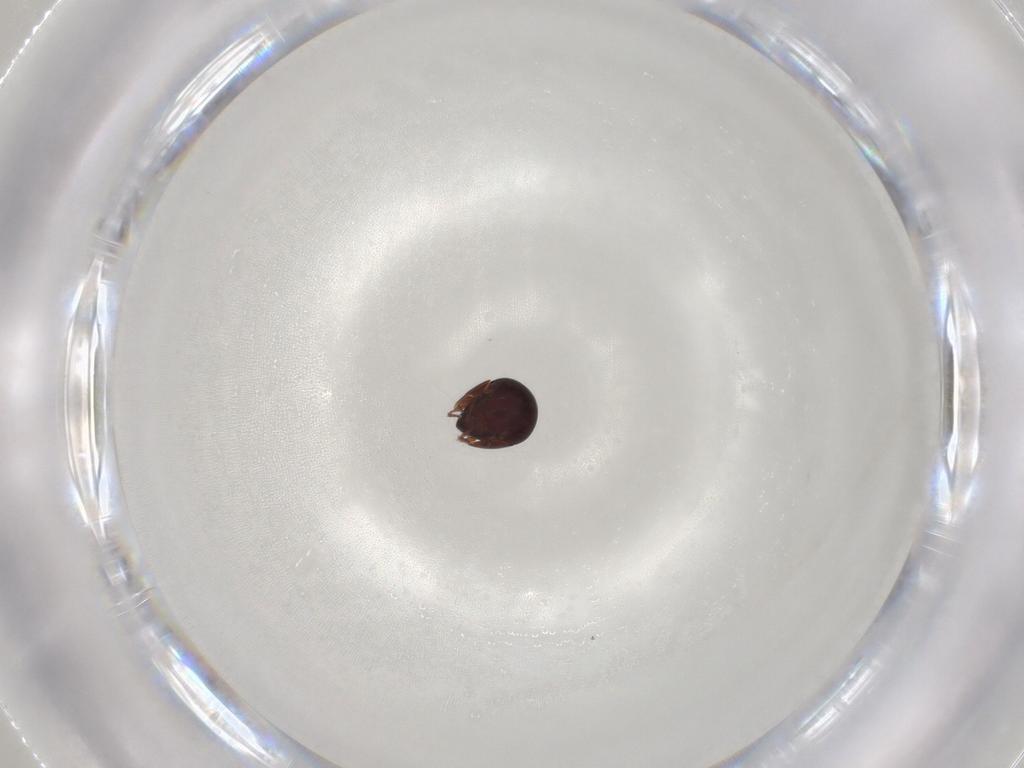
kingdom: Animalia
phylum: Arthropoda
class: Arachnida
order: Sarcoptiformes
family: Galumnidae
